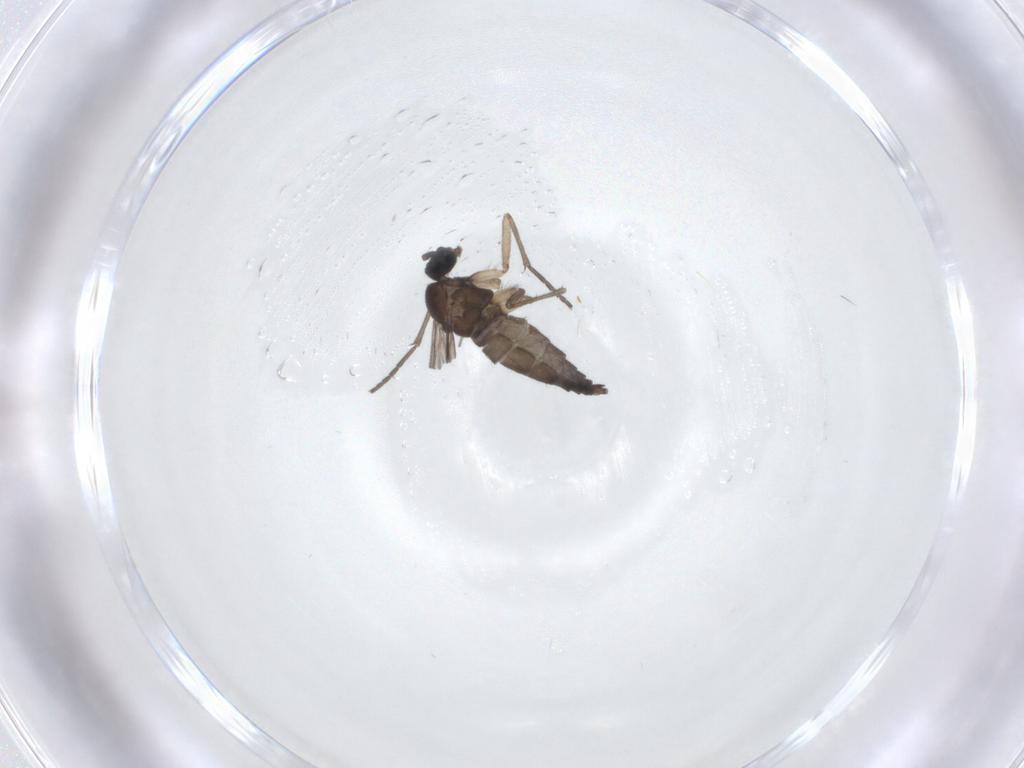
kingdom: Animalia
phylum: Arthropoda
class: Insecta
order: Diptera
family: Sciaridae
